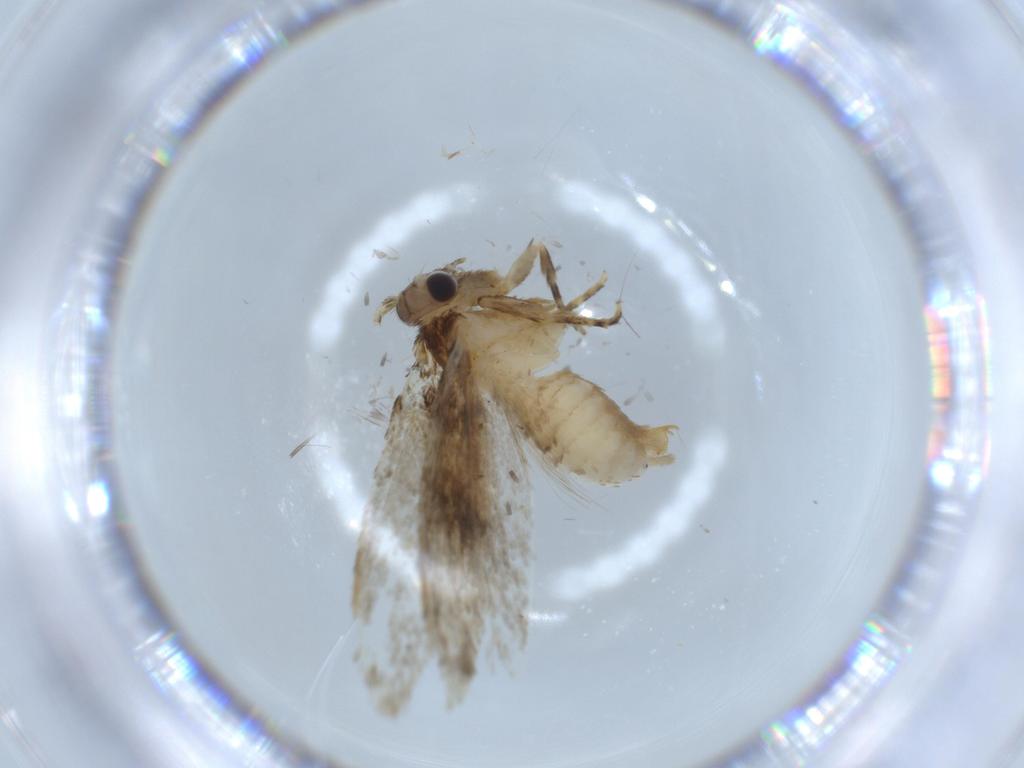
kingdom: Animalia
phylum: Arthropoda
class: Insecta
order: Lepidoptera
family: Tineidae
